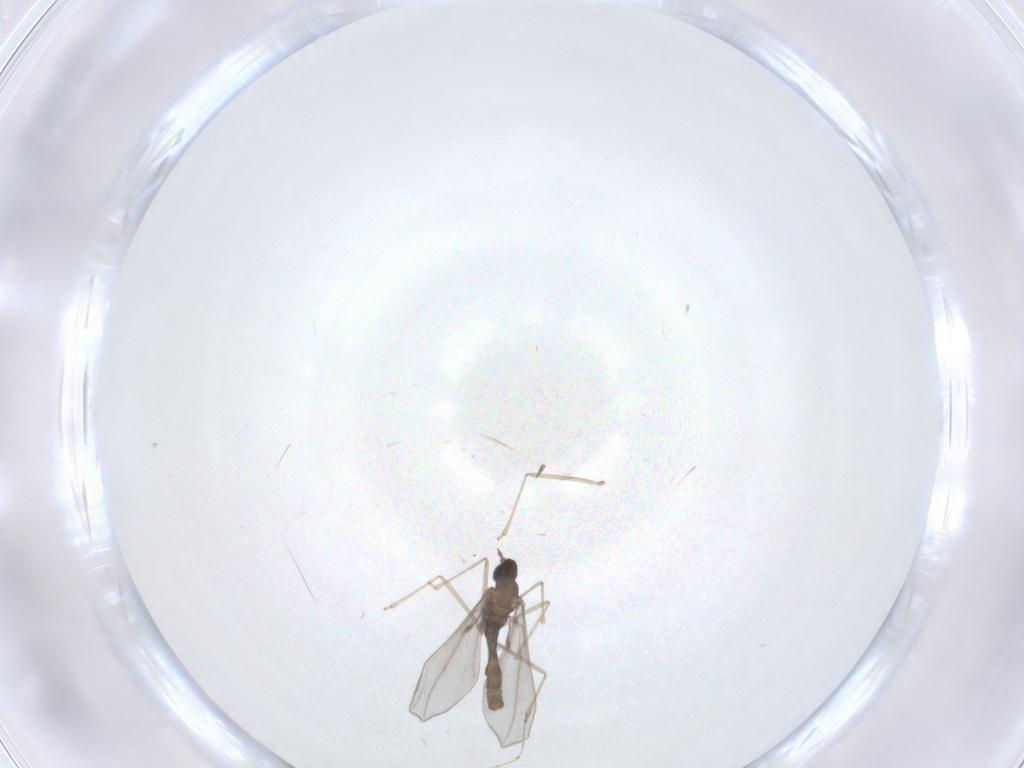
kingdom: Animalia
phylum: Arthropoda
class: Insecta
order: Diptera
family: Cecidomyiidae
